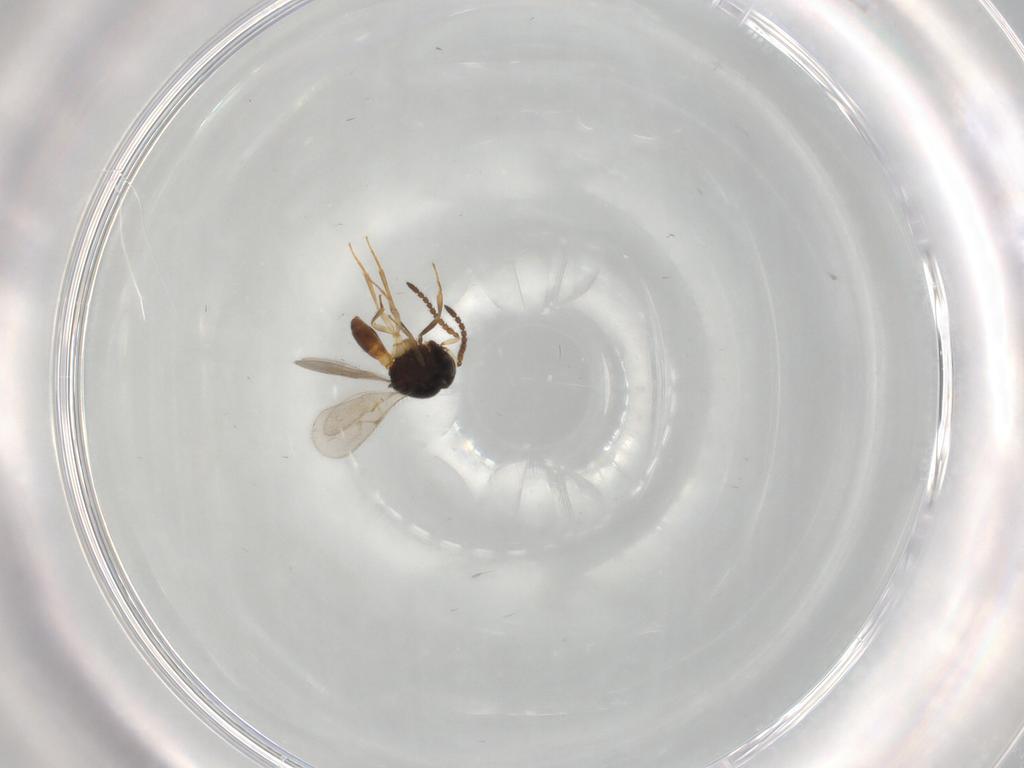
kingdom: Animalia
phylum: Arthropoda
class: Insecta
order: Hymenoptera
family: Scelionidae
